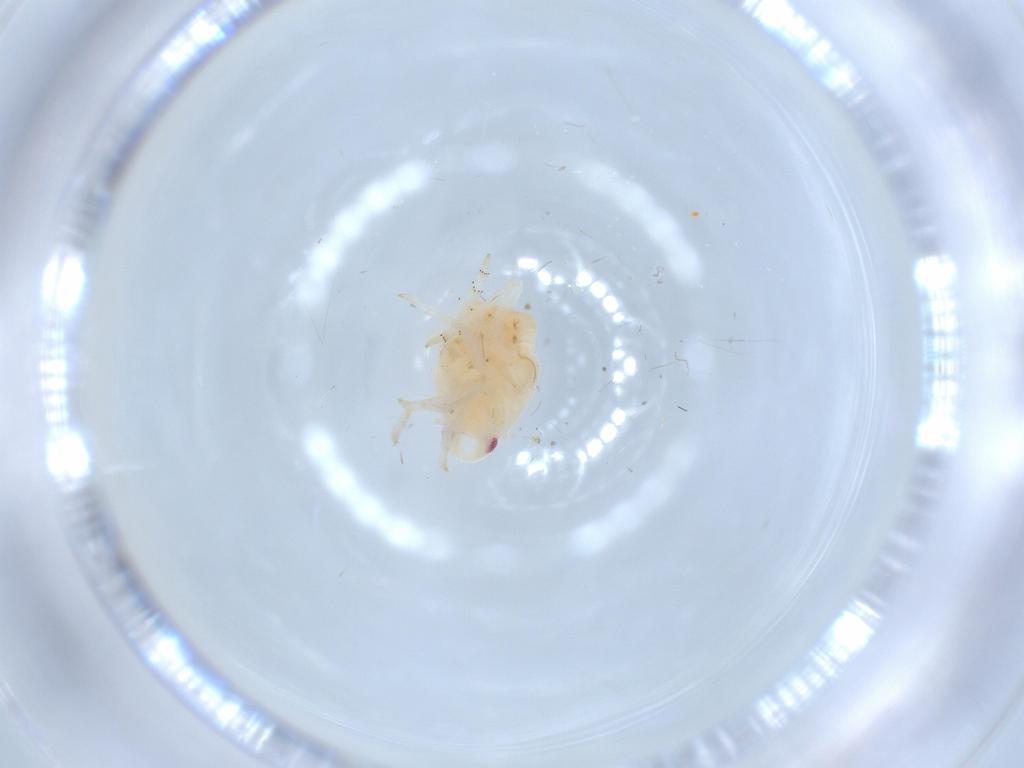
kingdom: Animalia
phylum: Arthropoda
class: Insecta
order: Hemiptera
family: Flatidae
